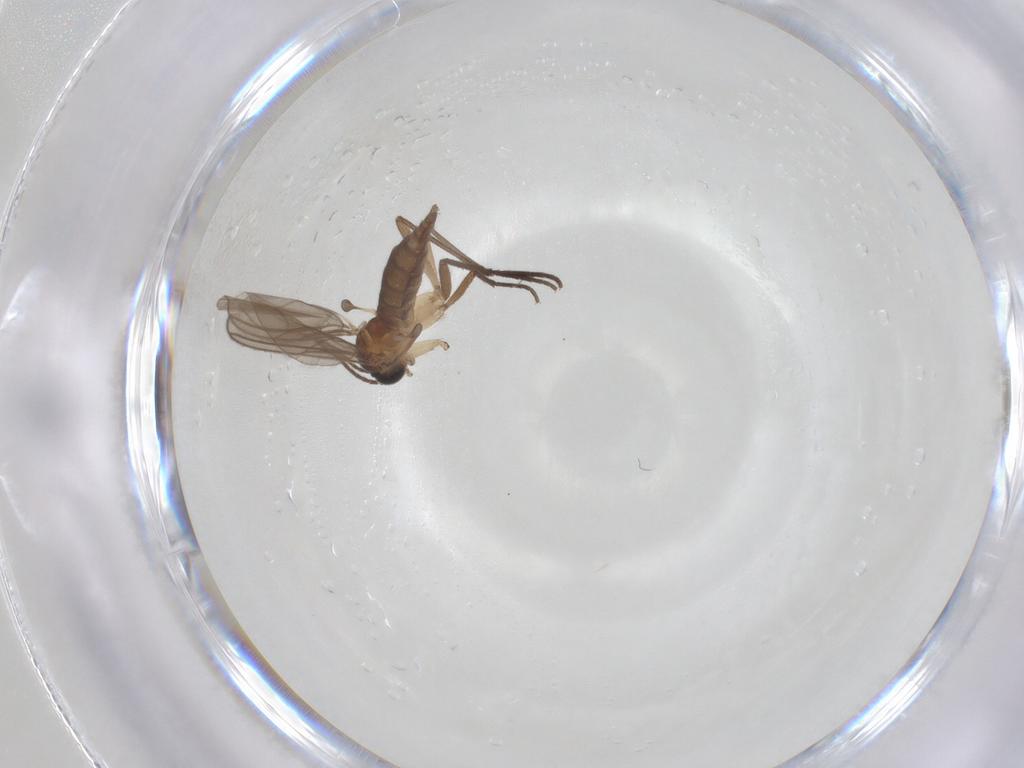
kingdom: Animalia
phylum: Arthropoda
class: Insecta
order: Diptera
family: Sciaridae
